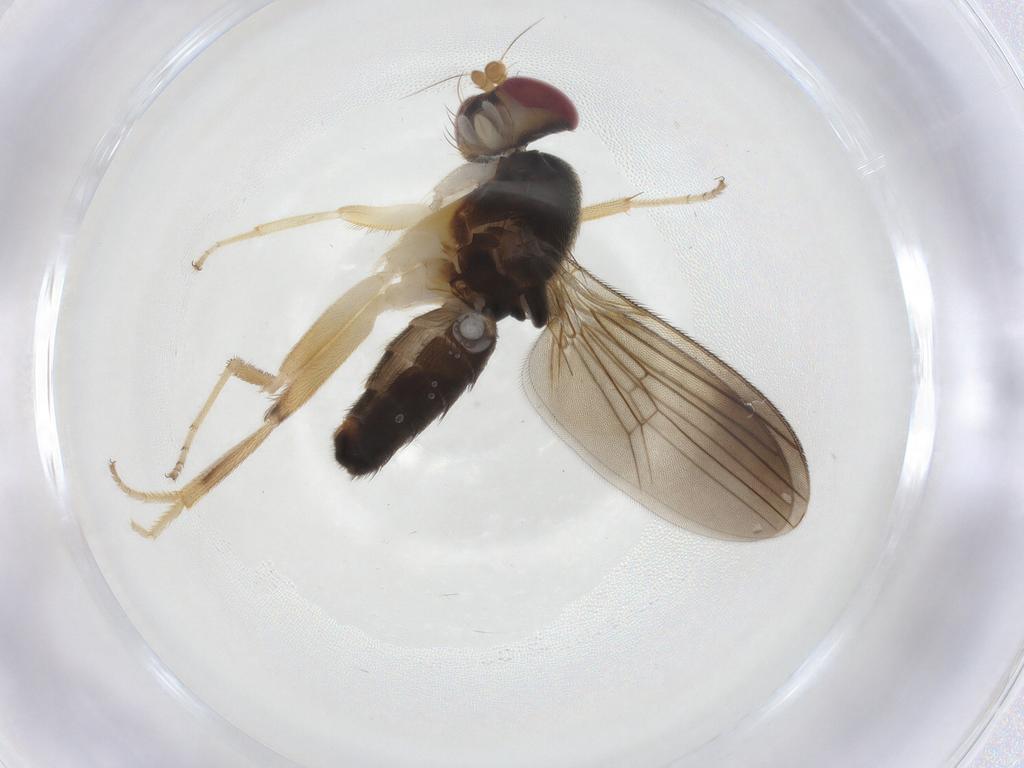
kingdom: Animalia
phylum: Arthropoda
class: Insecta
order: Diptera
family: Clusiidae
